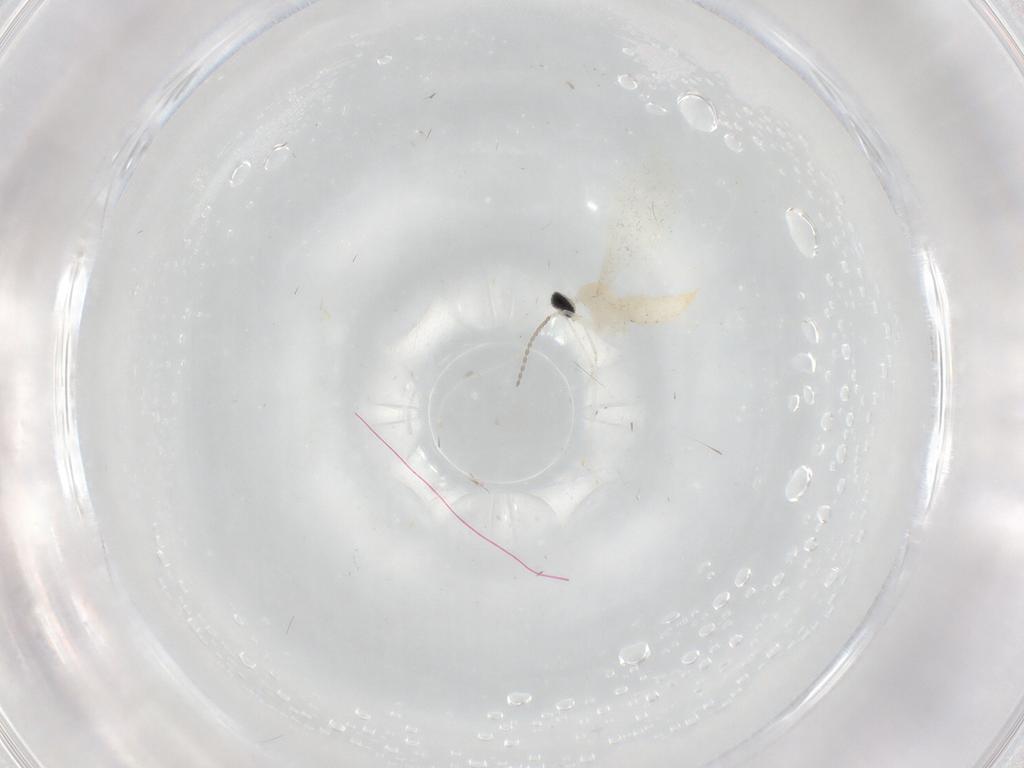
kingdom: Animalia
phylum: Arthropoda
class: Insecta
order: Diptera
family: Cecidomyiidae
